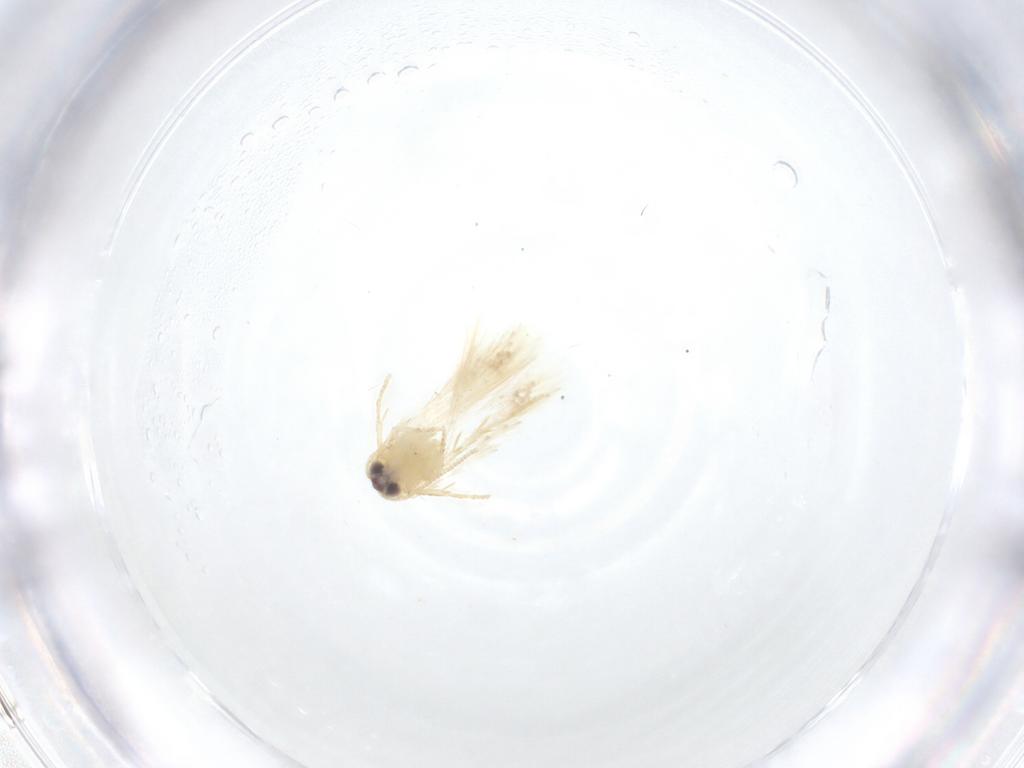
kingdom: Animalia
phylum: Arthropoda
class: Insecta
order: Lepidoptera
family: Nepticulidae
